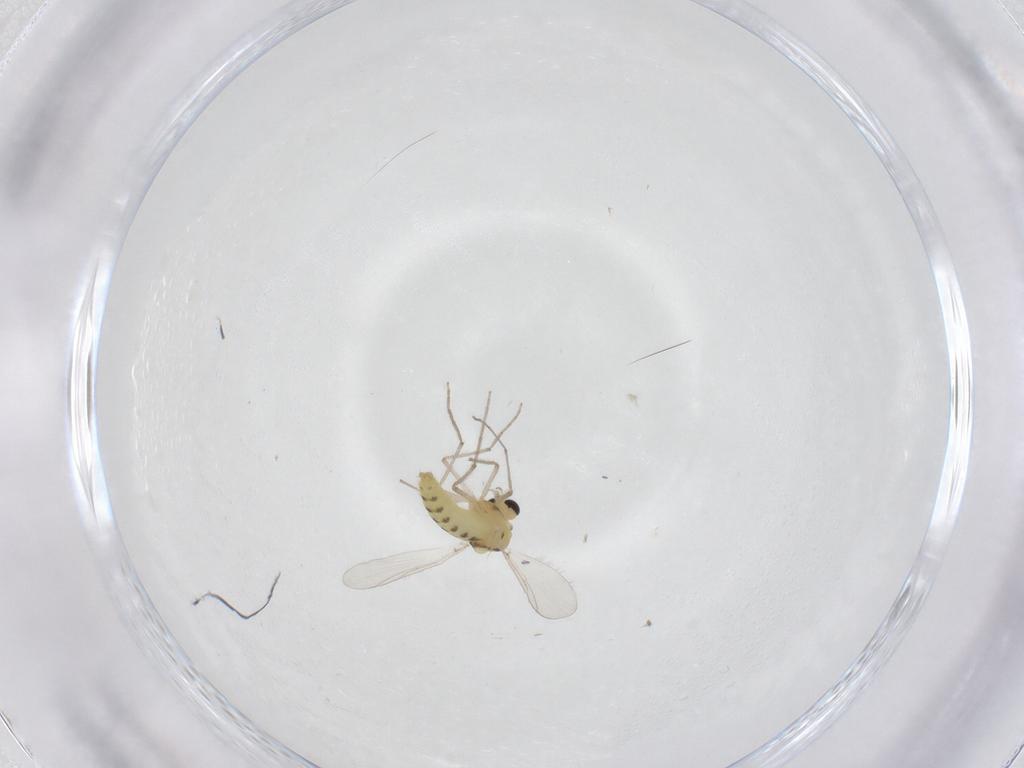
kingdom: Animalia
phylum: Arthropoda
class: Insecta
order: Diptera
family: Chironomidae
